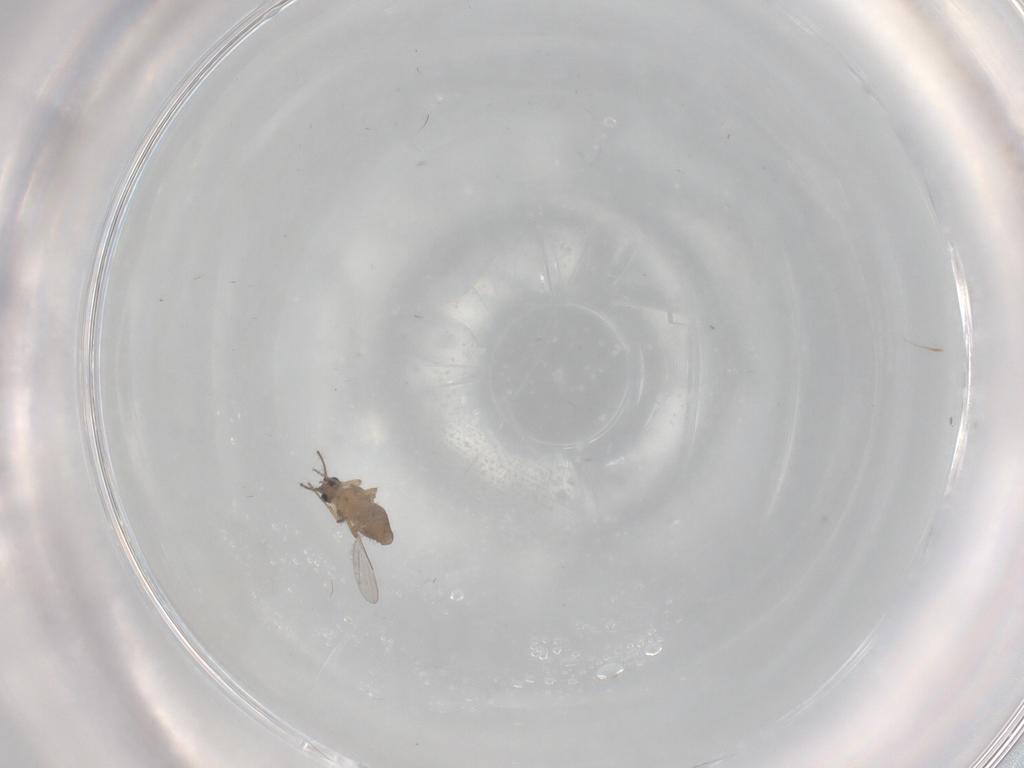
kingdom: Animalia
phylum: Arthropoda
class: Insecta
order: Diptera
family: Ceratopogonidae
